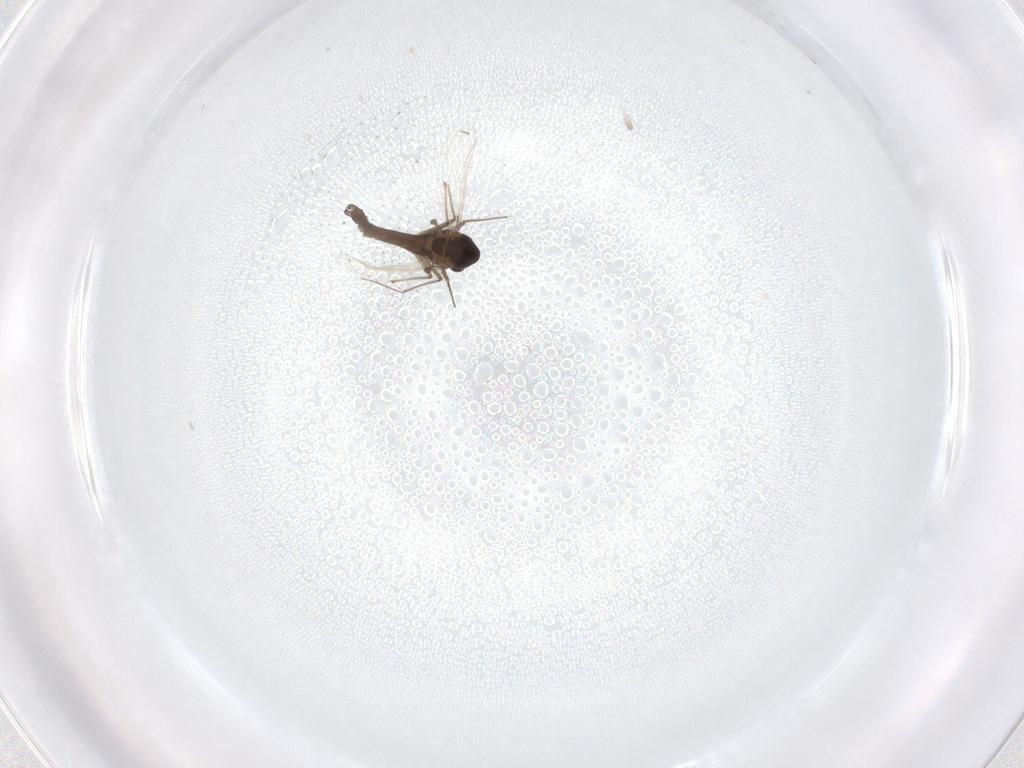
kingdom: Animalia
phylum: Arthropoda
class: Insecta
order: Diptera
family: Chironomidae
